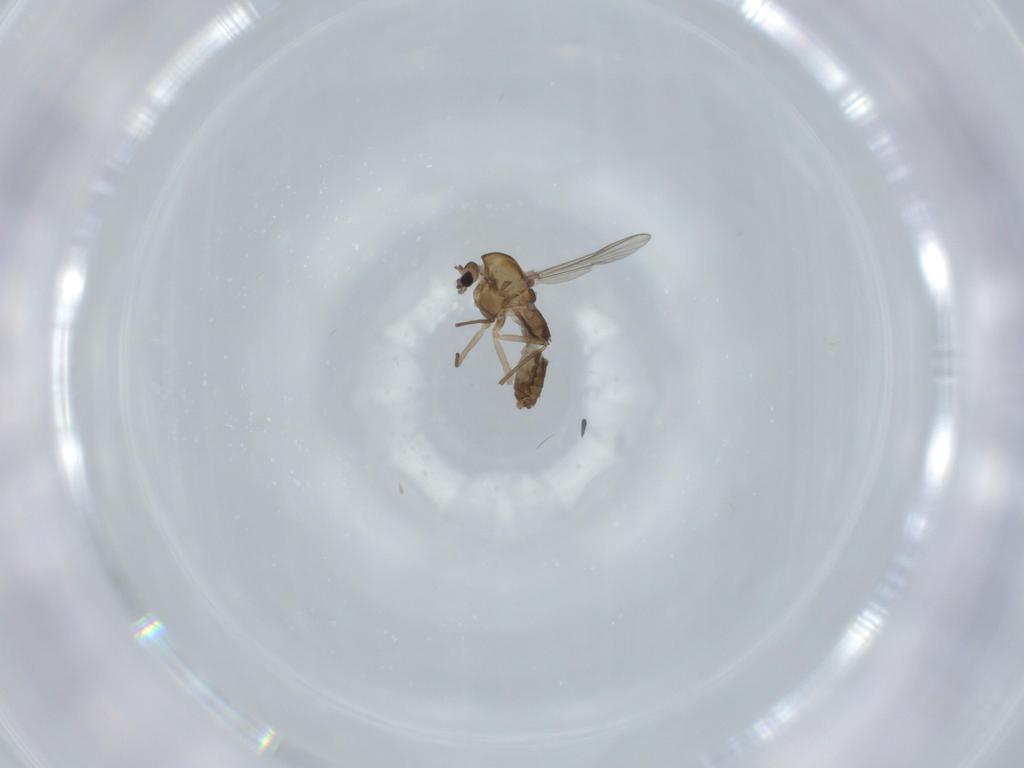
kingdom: Animalia
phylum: Arthropoda
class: Insecta
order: Diptera
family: Chironomidae
